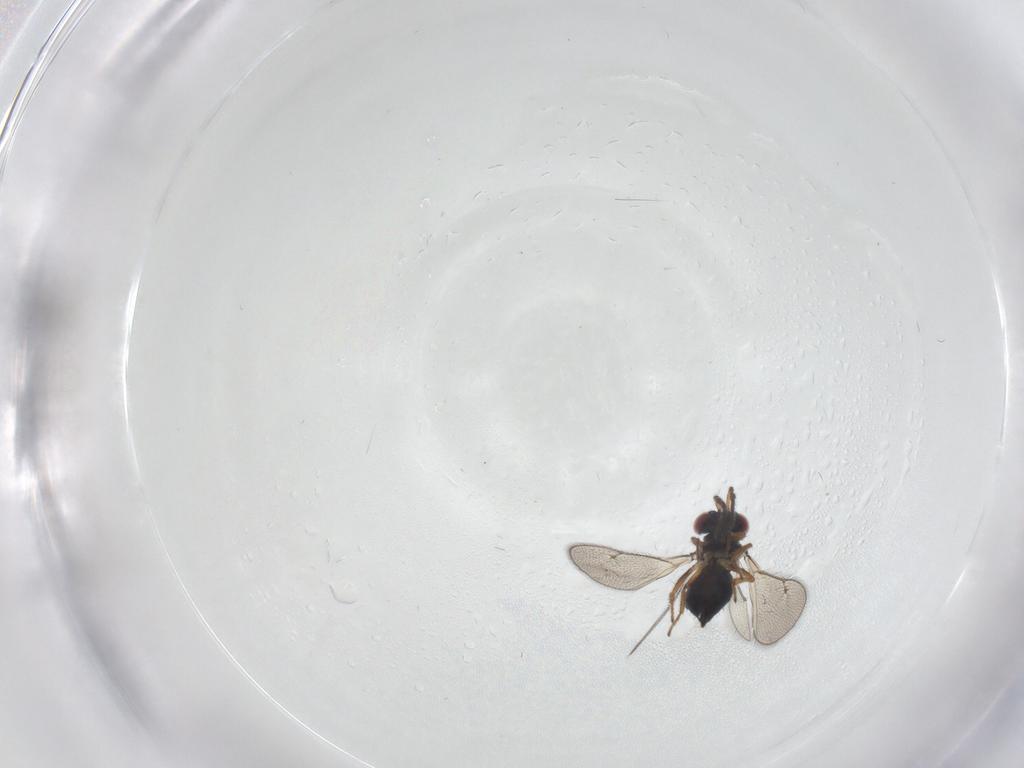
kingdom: Animalia
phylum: Arthropoda
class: Insecta
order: Hymenoptera
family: Eulophidae
